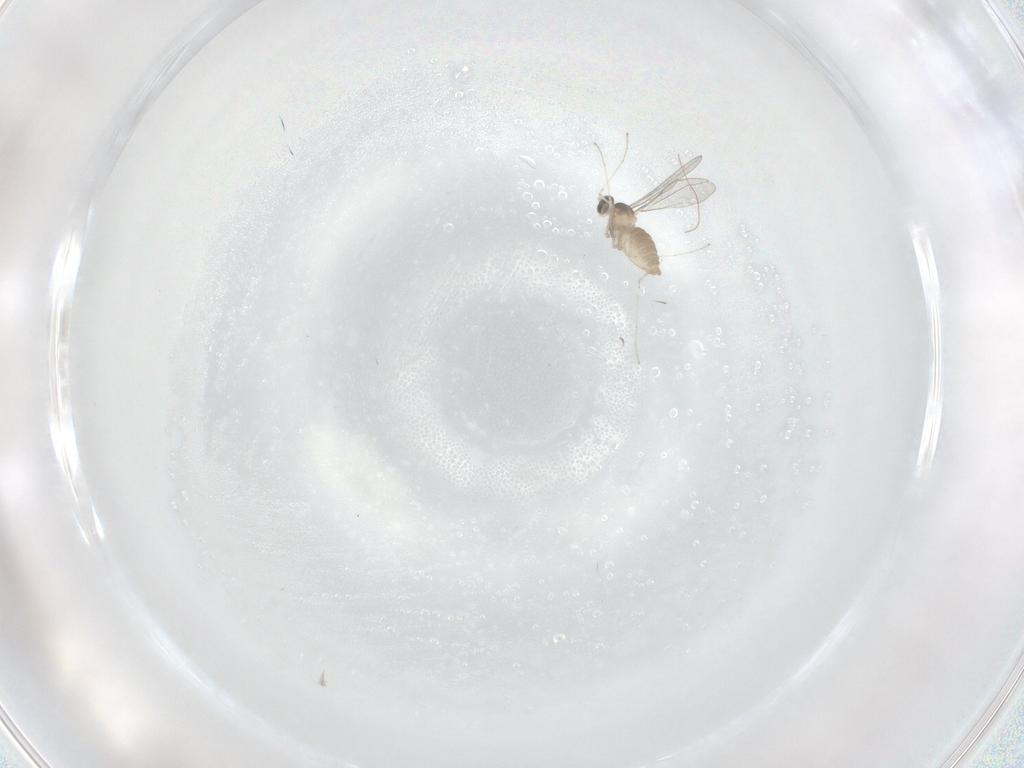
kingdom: Animalia
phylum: Arthropoda
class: Insecta
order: Diptera
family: Cecidomyiidae
